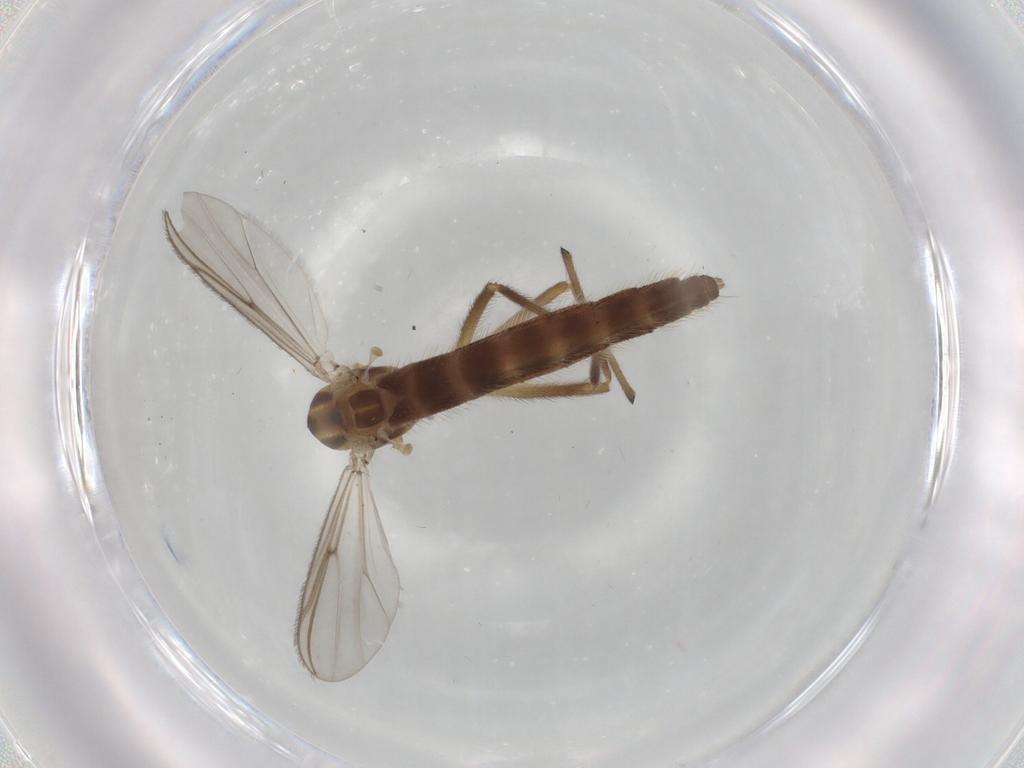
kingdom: Animalia
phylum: Arthropoda
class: Insecta
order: Diptera
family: Chironomidae
